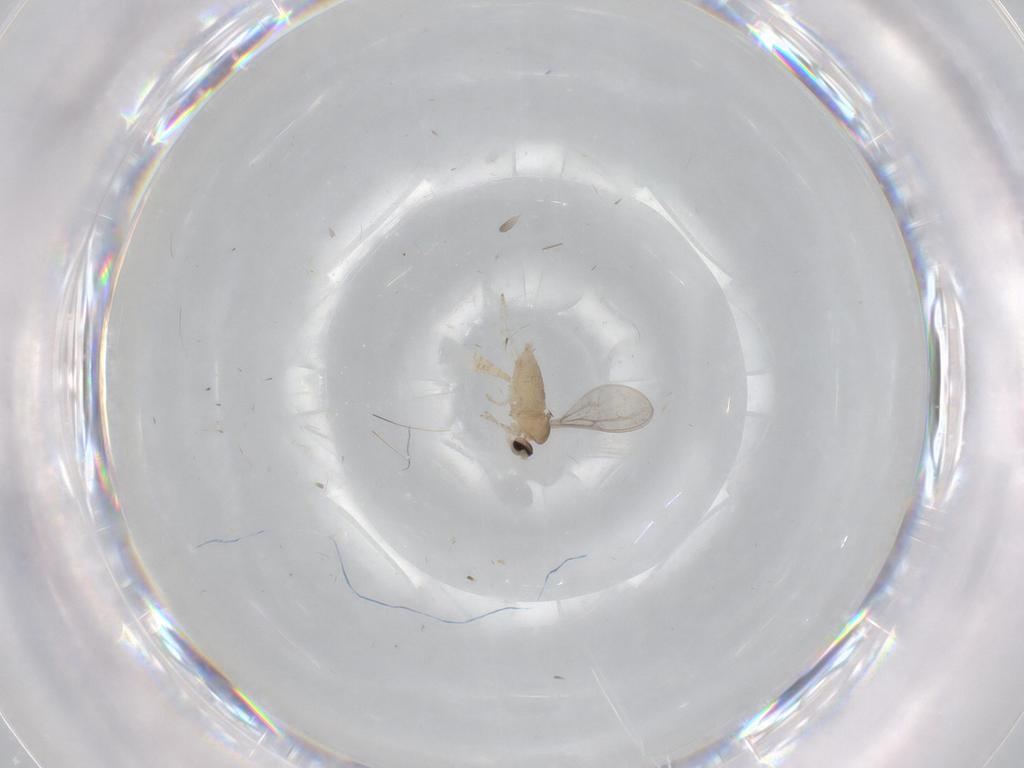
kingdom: Animalia
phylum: Arthropoda
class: Insecta
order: Diptera
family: Cecidomyiidae
